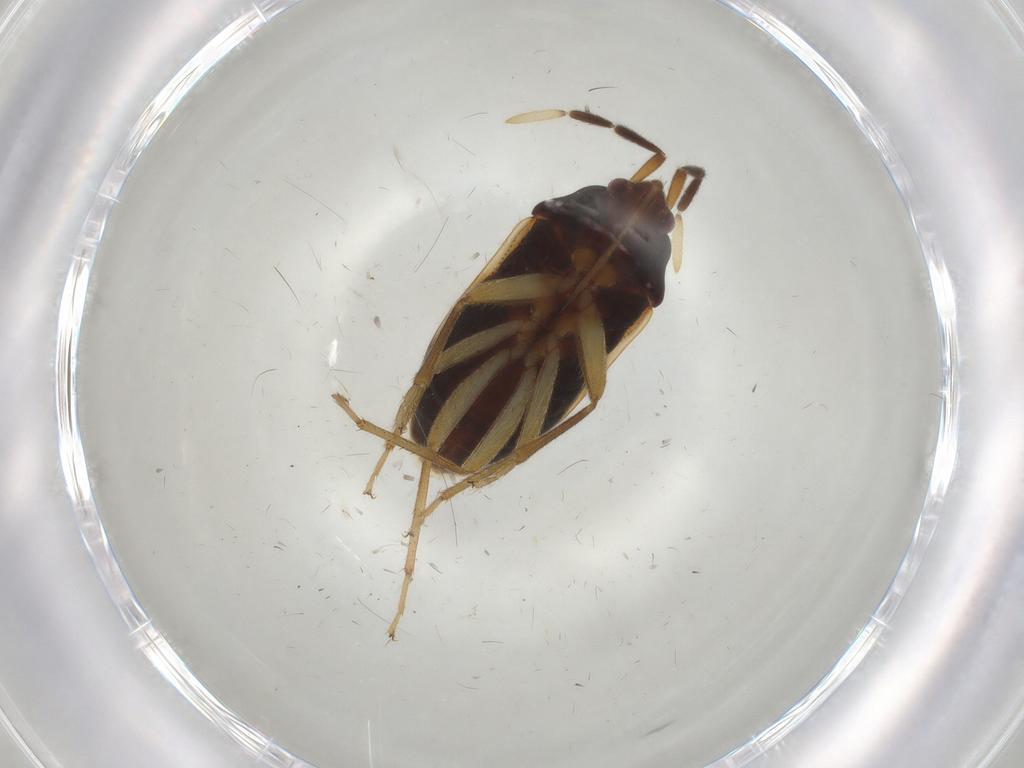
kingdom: Animalia
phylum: Arthropoda
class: Insecta
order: Hemiptera
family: Rhyparochromidae
